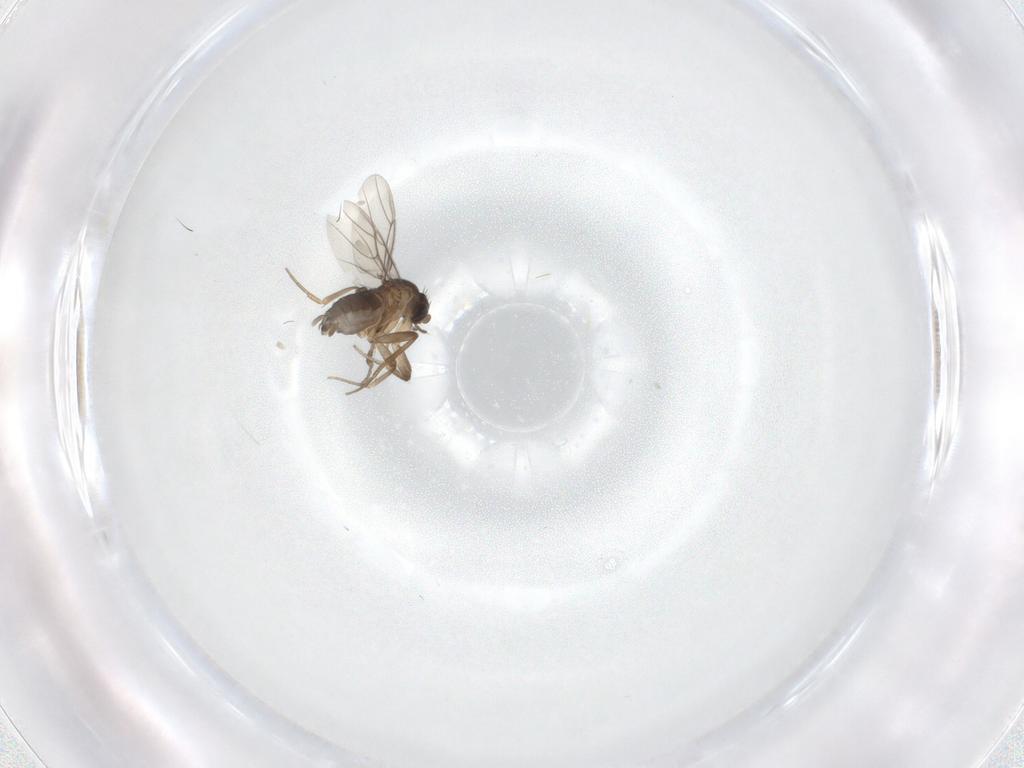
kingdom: Animalia
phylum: Arthropoda
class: Insecta
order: Diptera
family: Phoridae
